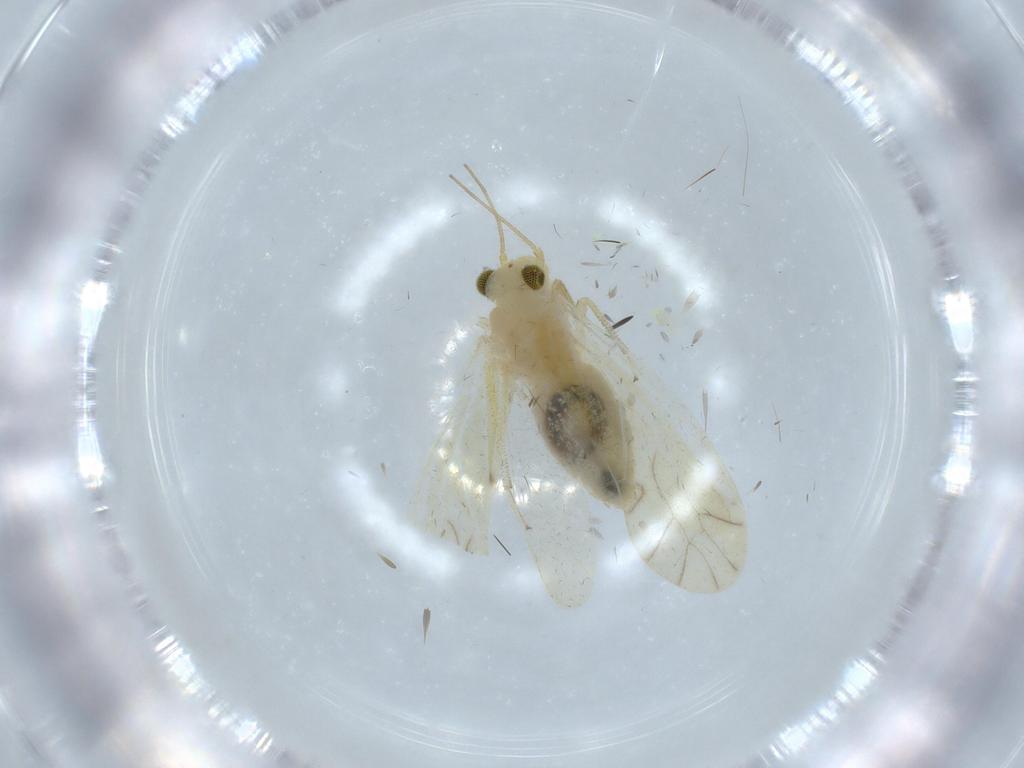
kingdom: Animalia
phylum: Arthropoda
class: Insecta
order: Psocodea
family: Caeciliusidae
